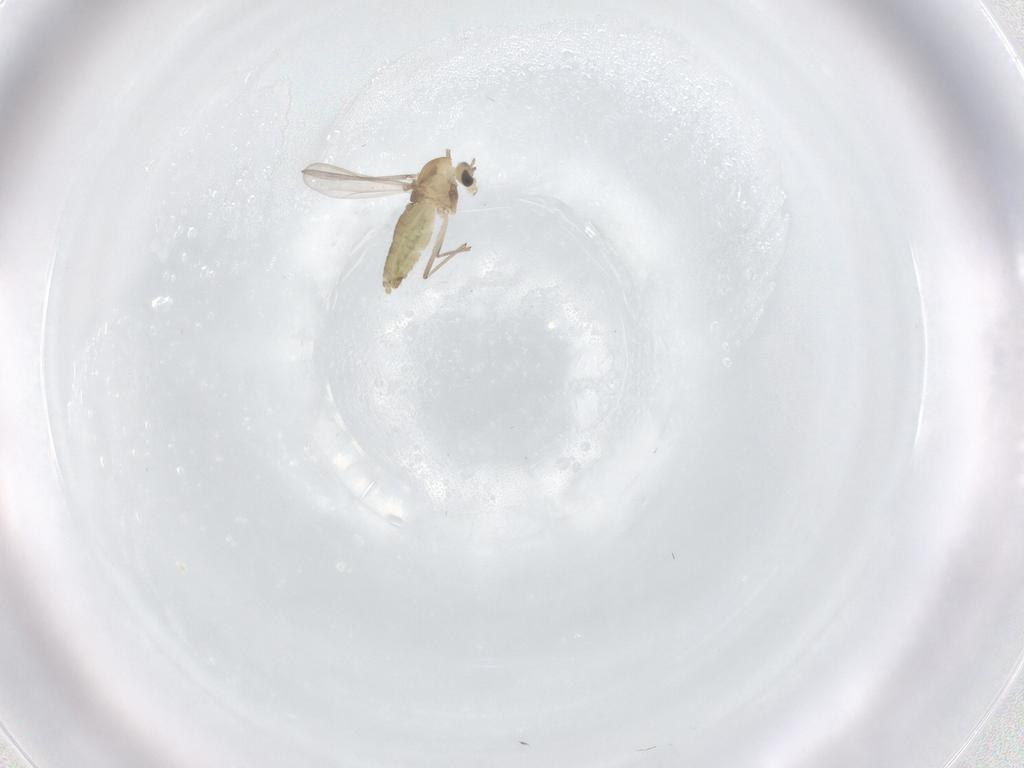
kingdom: Animalia
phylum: Arthropoda
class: Insecta
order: Diptera
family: Chironomidae
